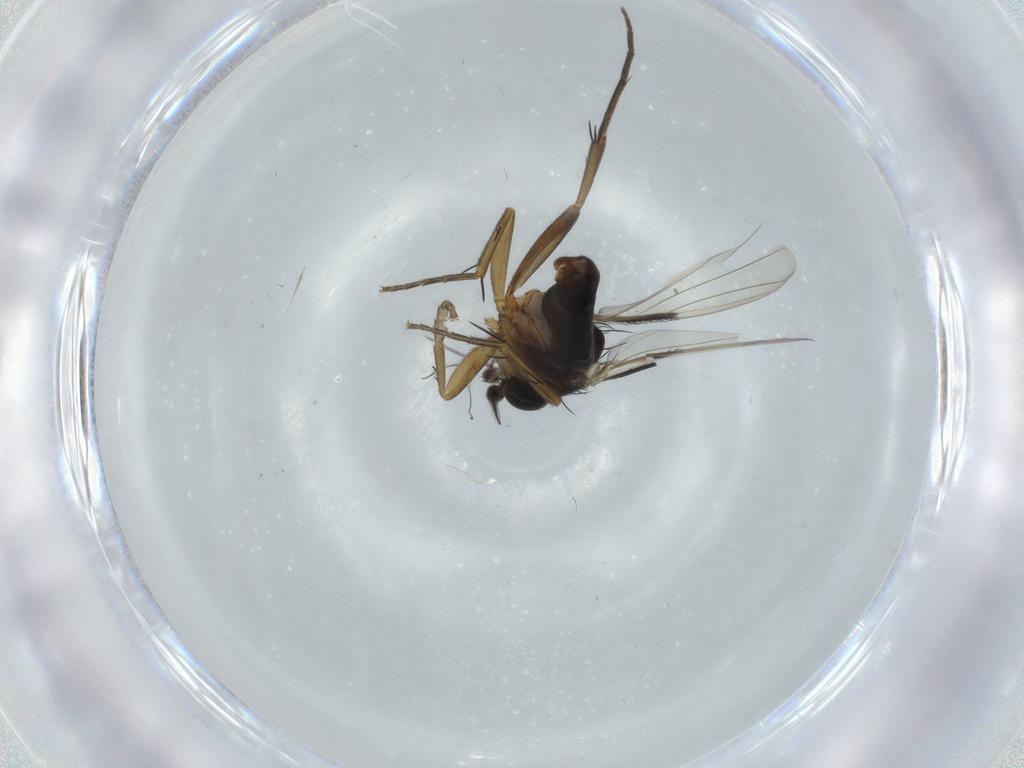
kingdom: Animalia
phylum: Arthropoda
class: Insecta
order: Diptera
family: Phoridae
